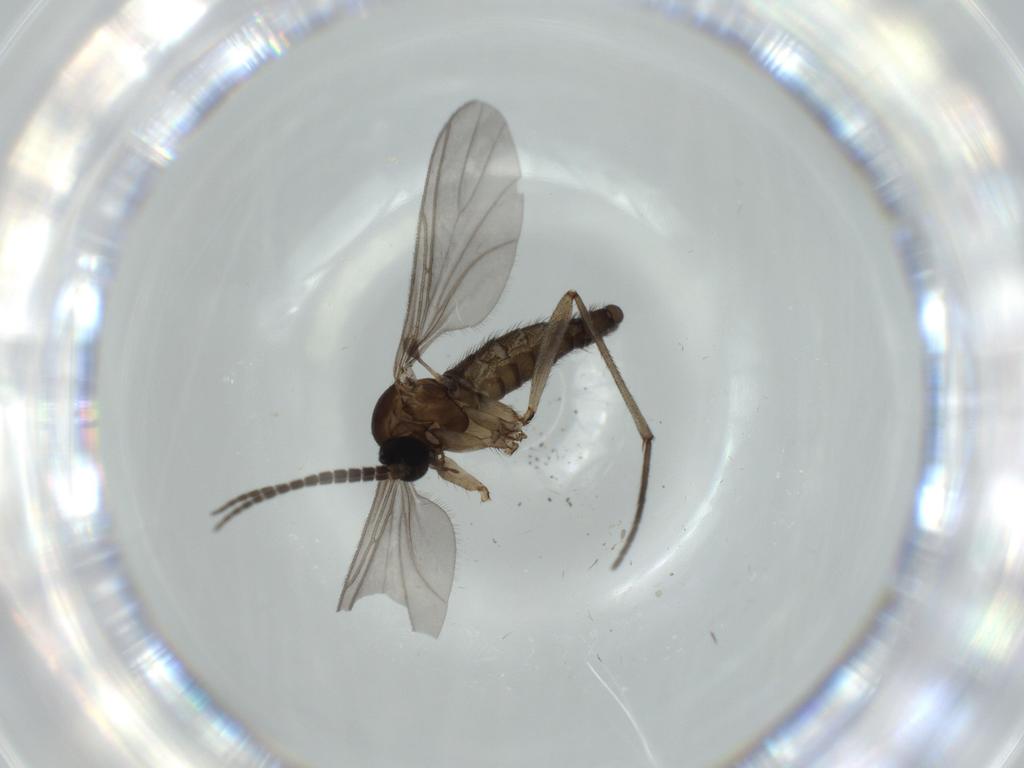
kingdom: Animalia
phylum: Arthropoda
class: Insecta
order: Diptera
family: Sciaridae
